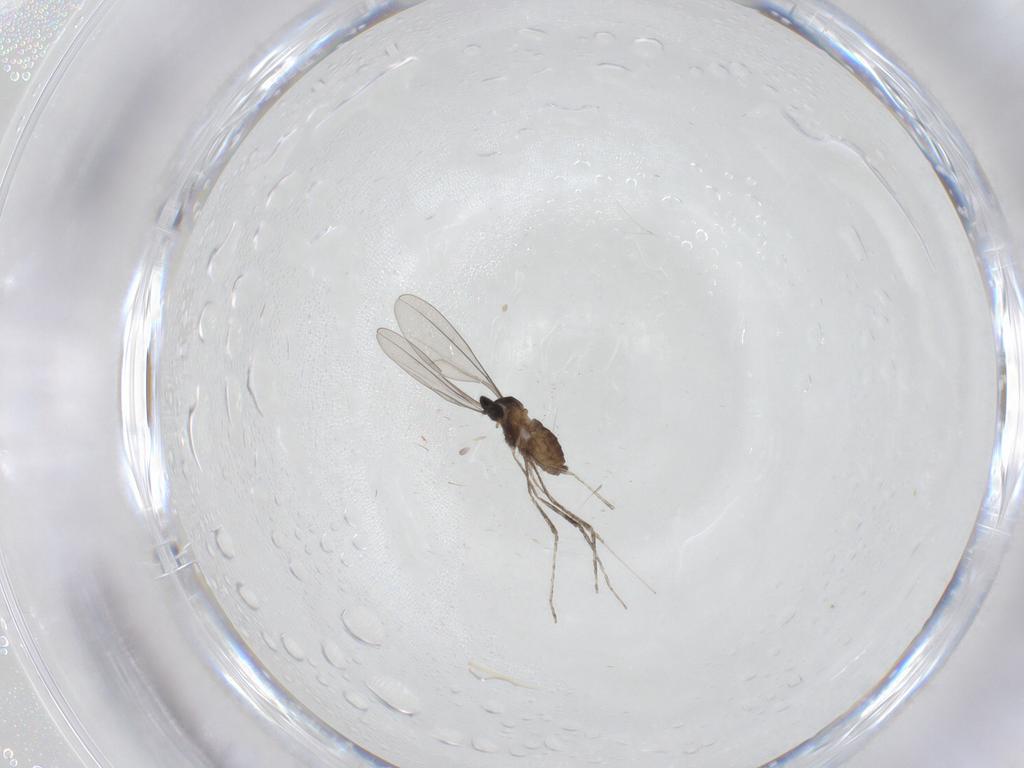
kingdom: Animalia
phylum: Arthropoda
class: Insecta
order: Diptera
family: Cecidomyiidae
